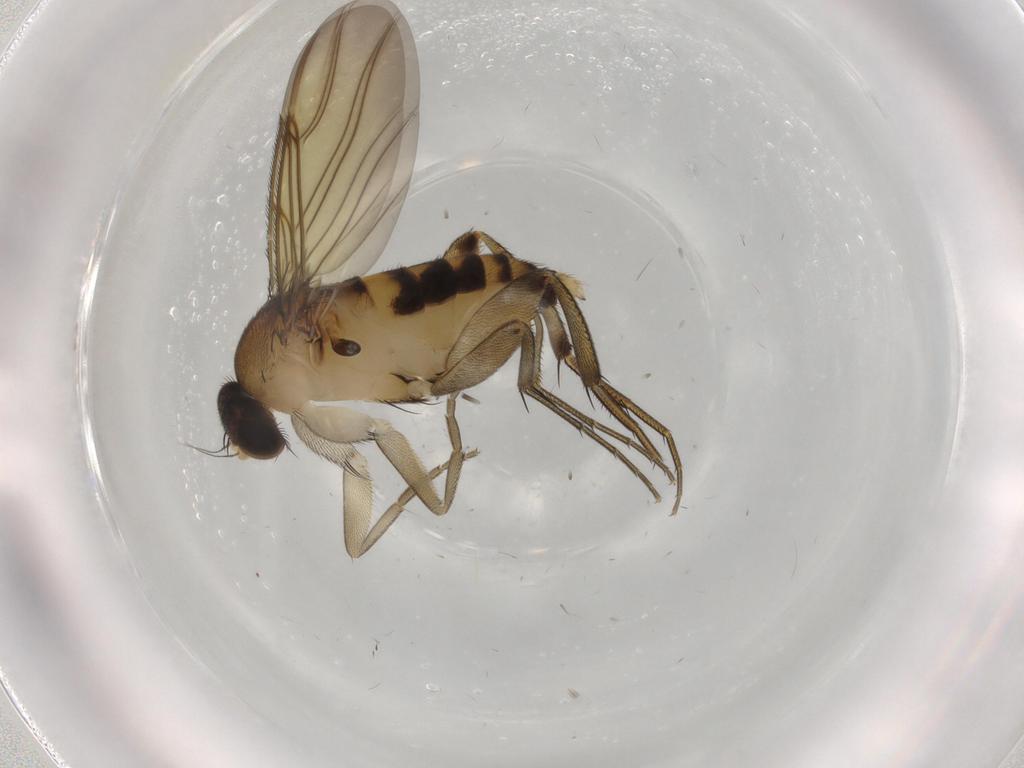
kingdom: Animalia
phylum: Arthropoda
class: Insecta
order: Diptera
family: Phoridae
